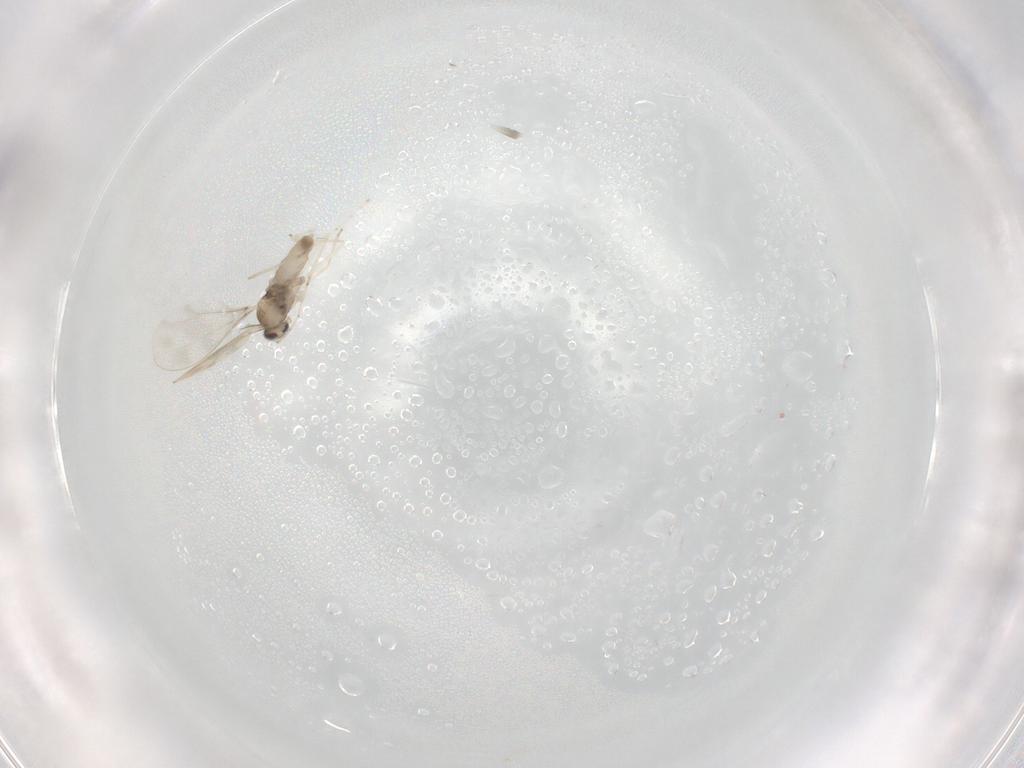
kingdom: Animalia
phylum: Arthropoda
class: Insecta
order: Diptera
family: Cecidomyiidae
